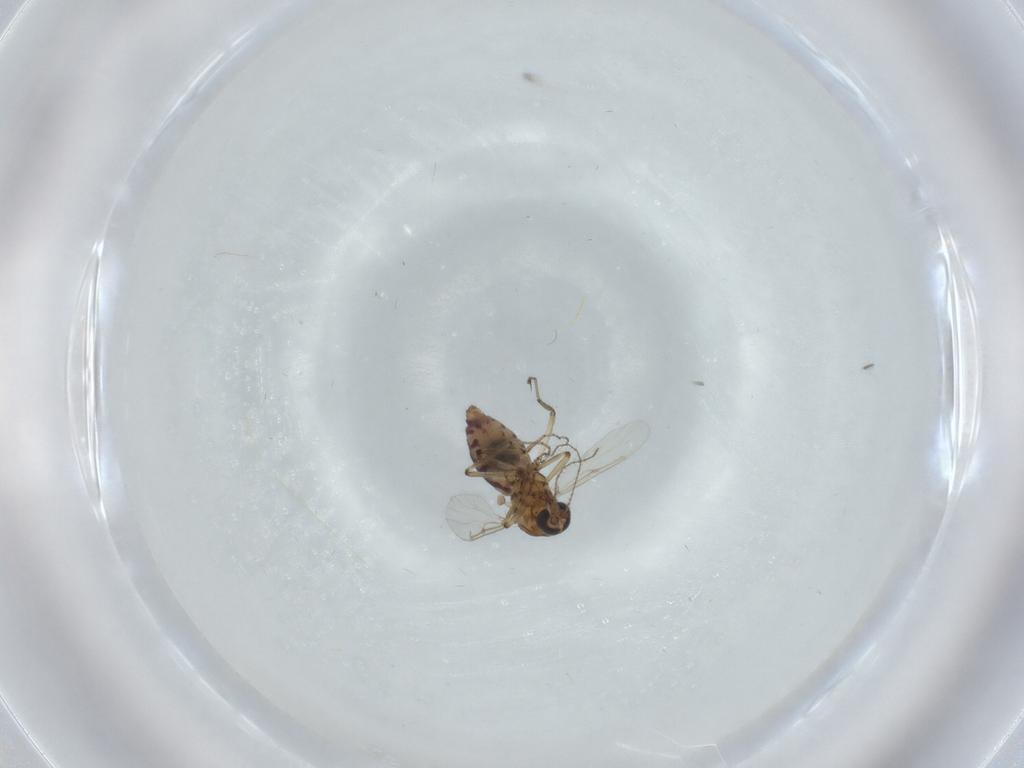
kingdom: Animalia
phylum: Arthropoda
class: Insecta
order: Diptera
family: Ceratopogonidae
